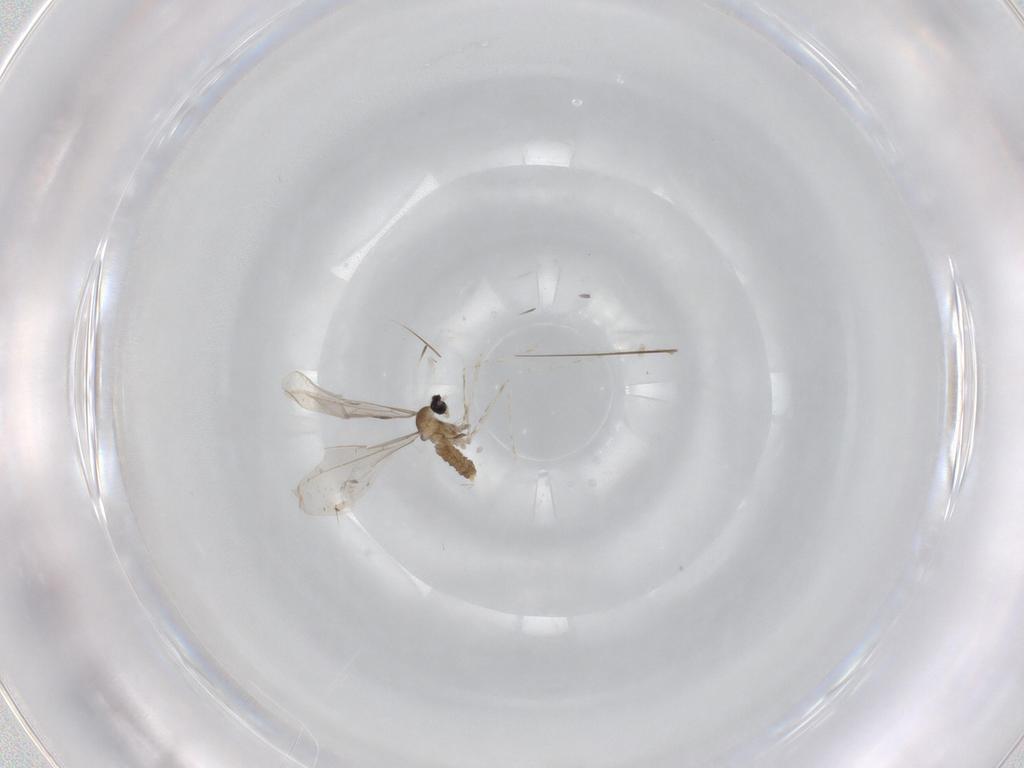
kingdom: Animalia
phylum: Arthropoda
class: Insecta
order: Diptera
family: Cecidomyiidae
